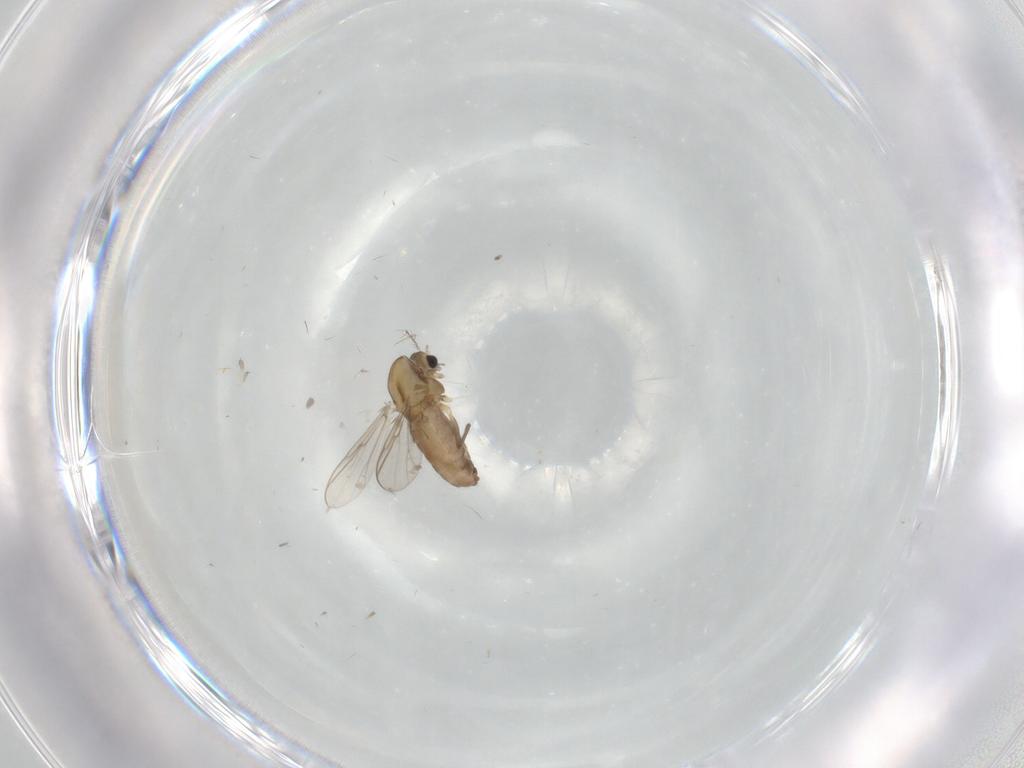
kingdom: Animalia
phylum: Arthropoda
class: Insecta
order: Diptera
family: Chironomidae
